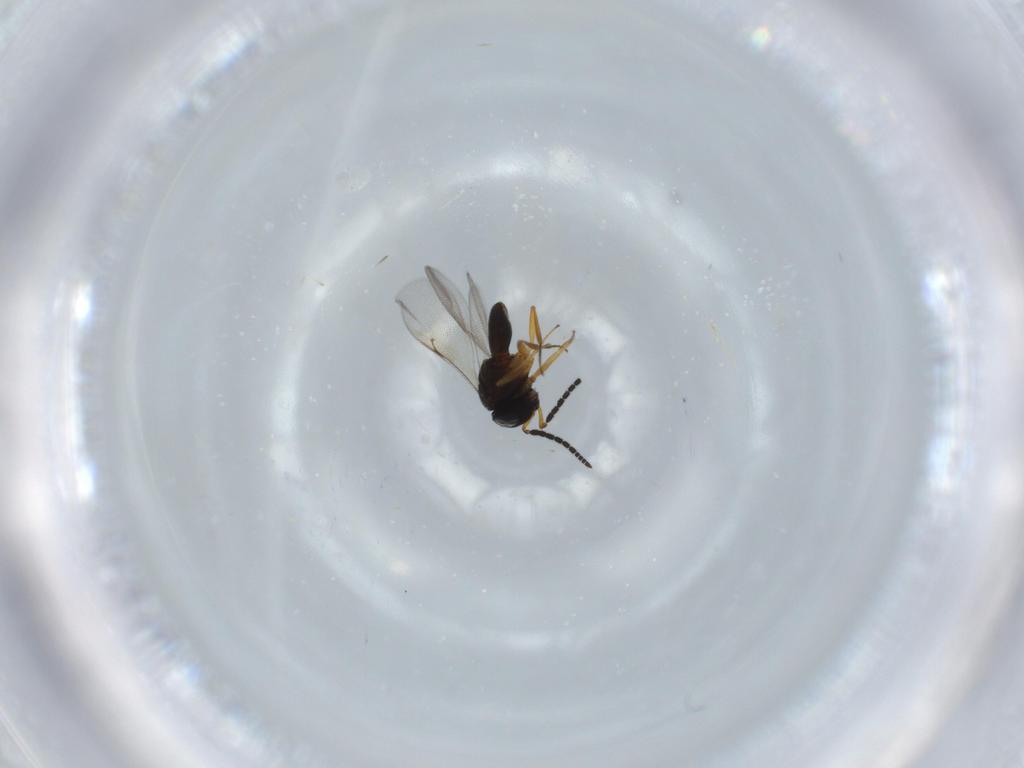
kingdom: Animalia
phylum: Arthropoda
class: Insecta
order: Hymenoptera
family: Scelionidae
